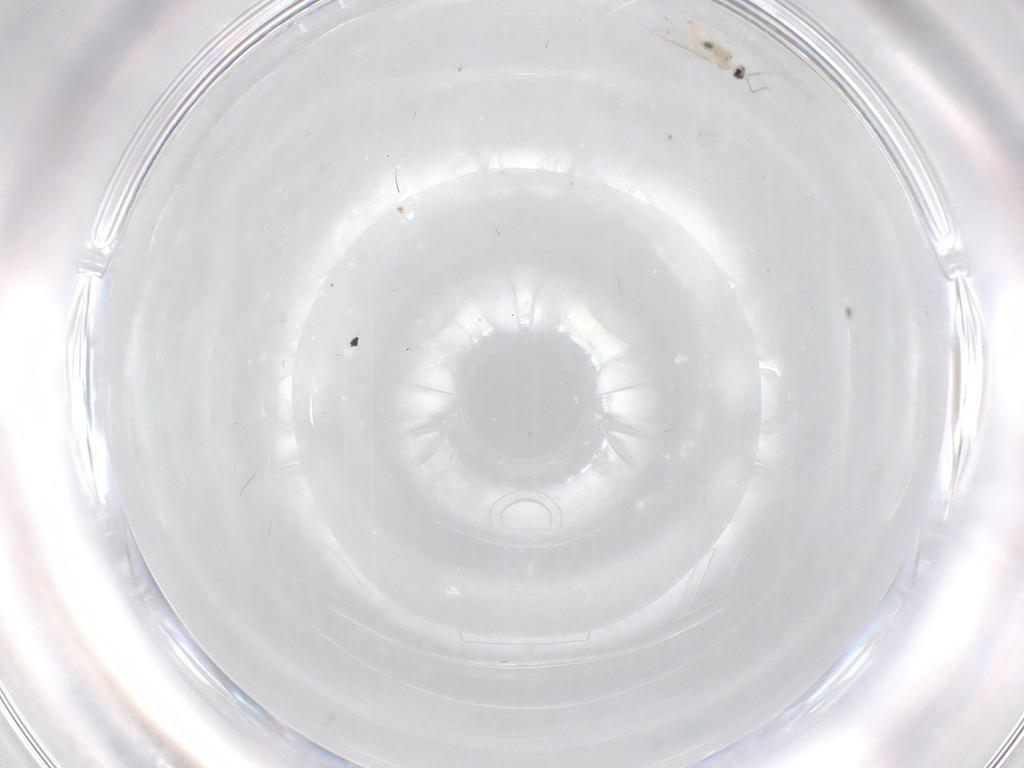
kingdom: Animalia
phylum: Arthropoda
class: Insecta
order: Diptera
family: Cecidomyiidae
